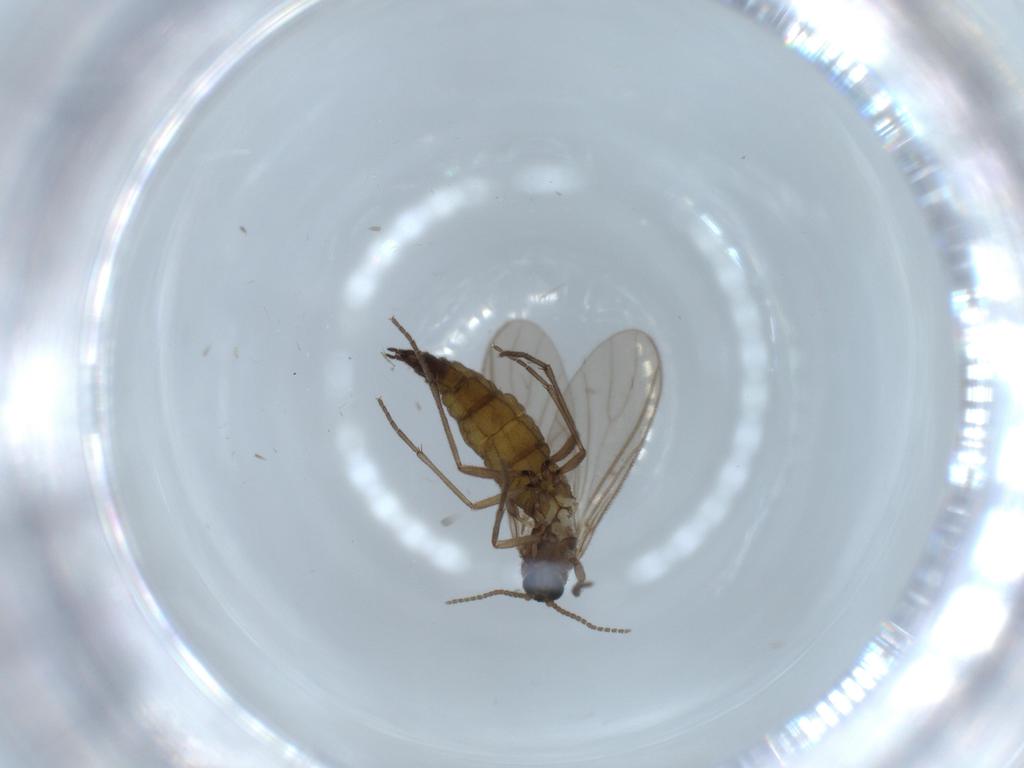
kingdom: Animalia
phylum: Arthropoda
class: Insecta
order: Diptera
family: Sciaridae
